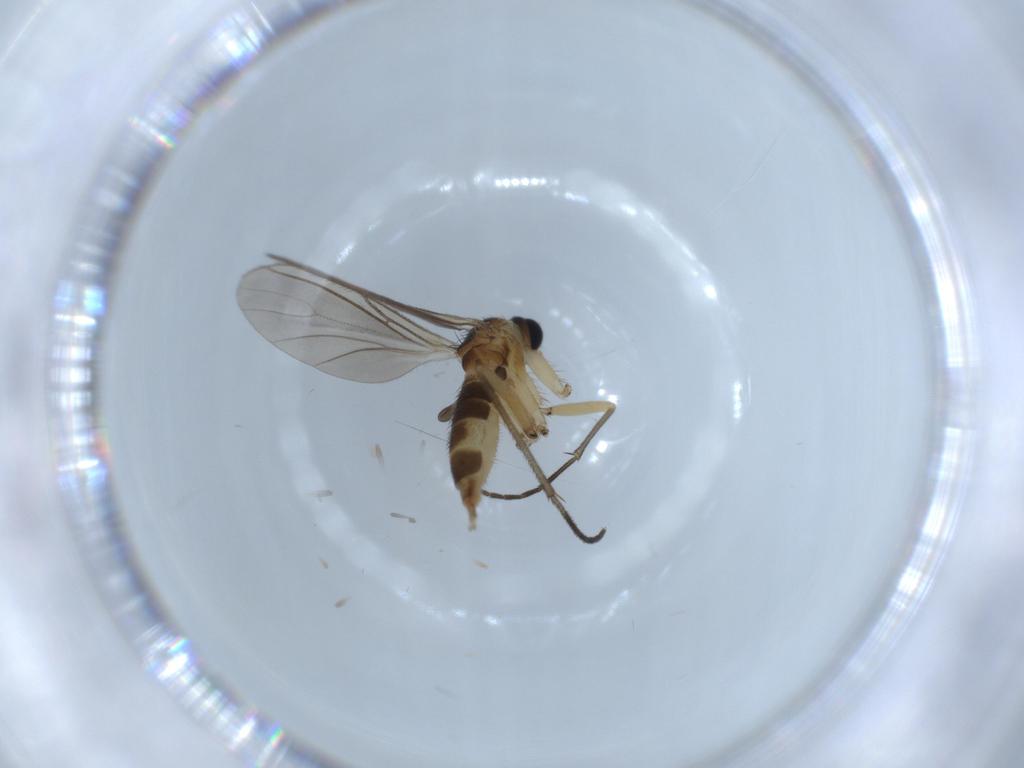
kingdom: Animalia
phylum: Arthropoda
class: Insecta
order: Diptera
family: Sciaridae
